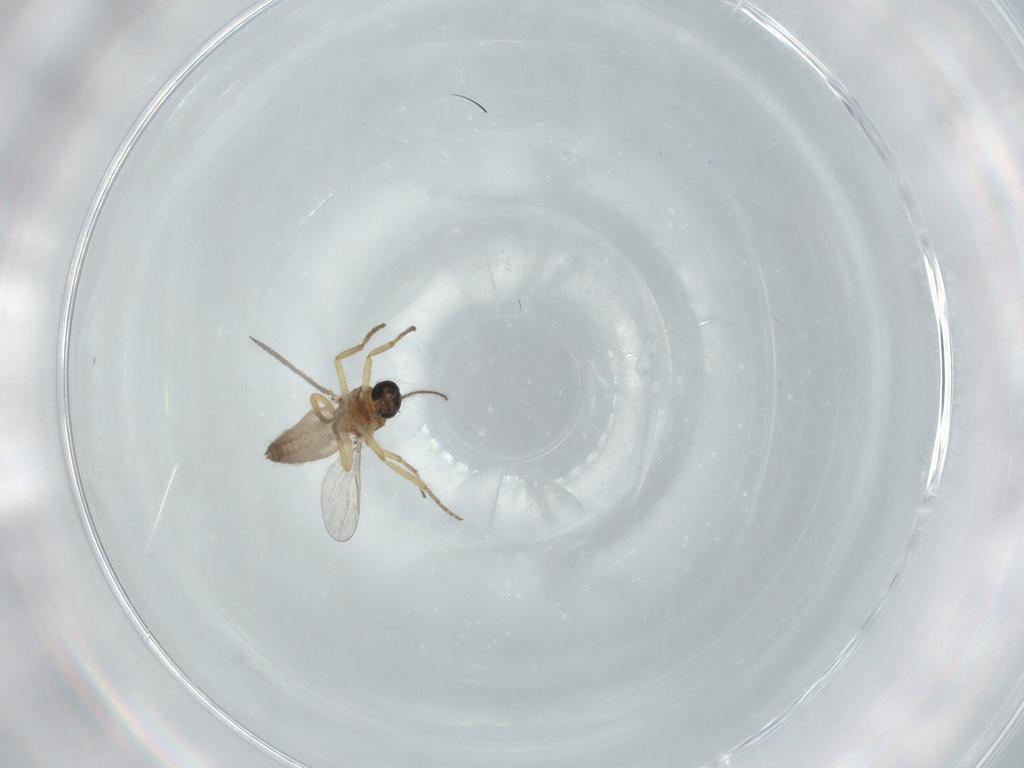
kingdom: Animalia
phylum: Arthropoda
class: Insecta
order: Diptera
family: Ceratopogonidae
